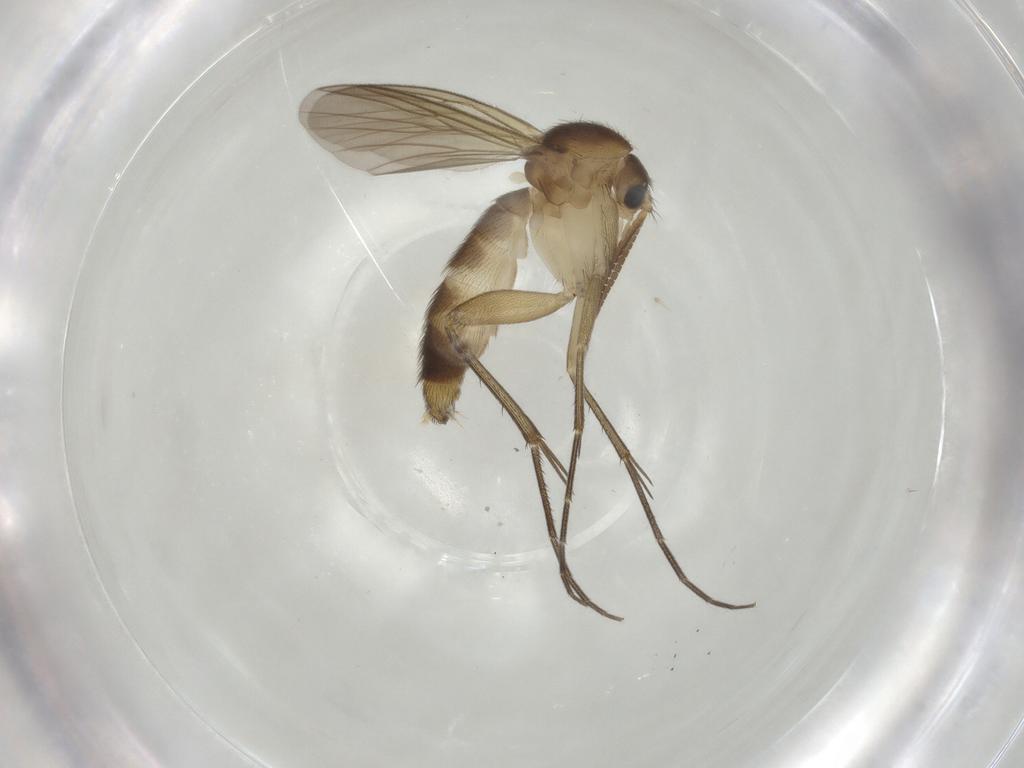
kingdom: Animalia
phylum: Arthropoda
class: Insecta
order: Diptera
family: Mycetophilidae
